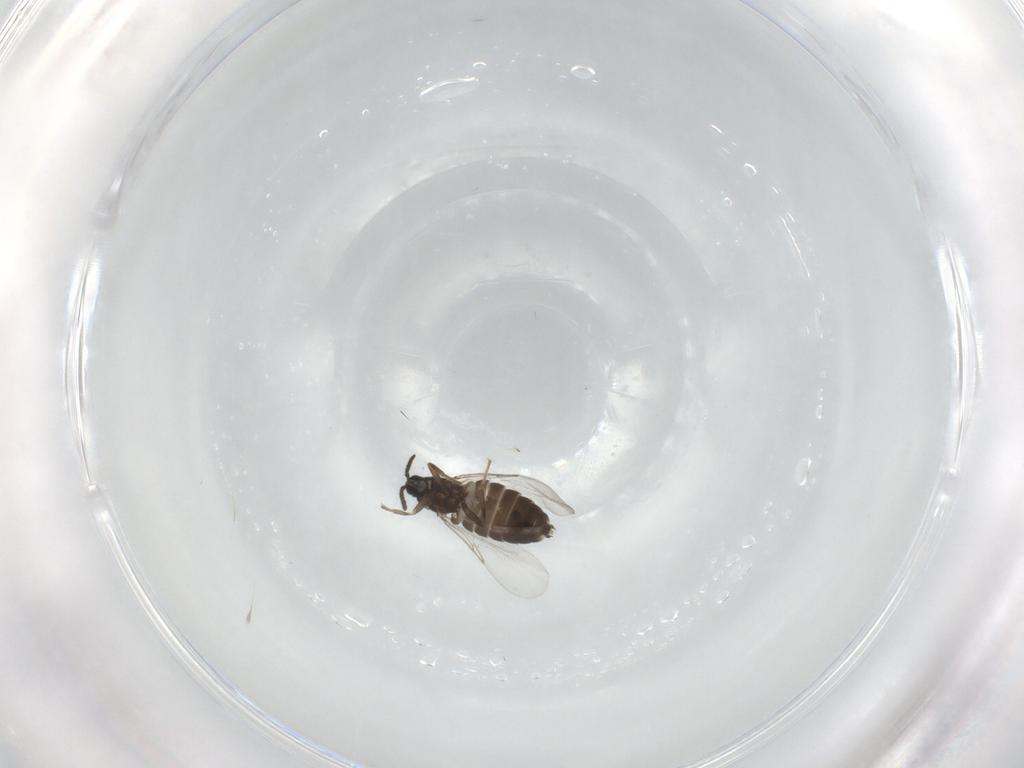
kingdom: Animalia
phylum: Arthropoda
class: Insecta
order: Diptera
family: Scatopsidae
